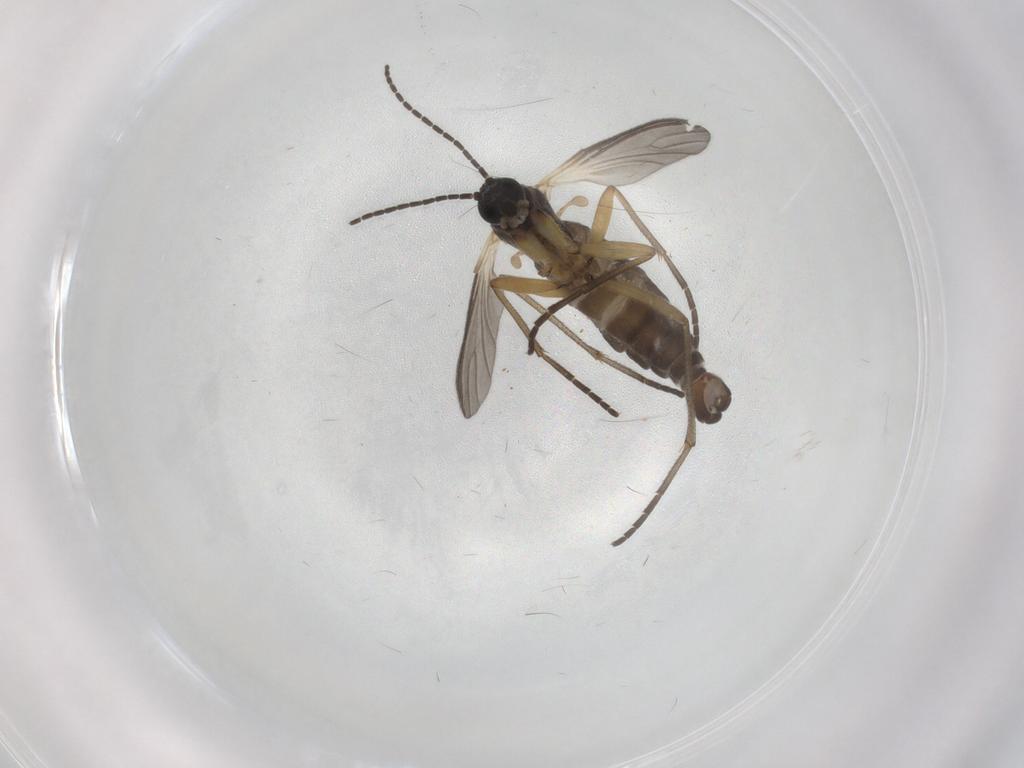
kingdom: Animalia
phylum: Arthropoda
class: Insecta
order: Diptera
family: Sciaridae
